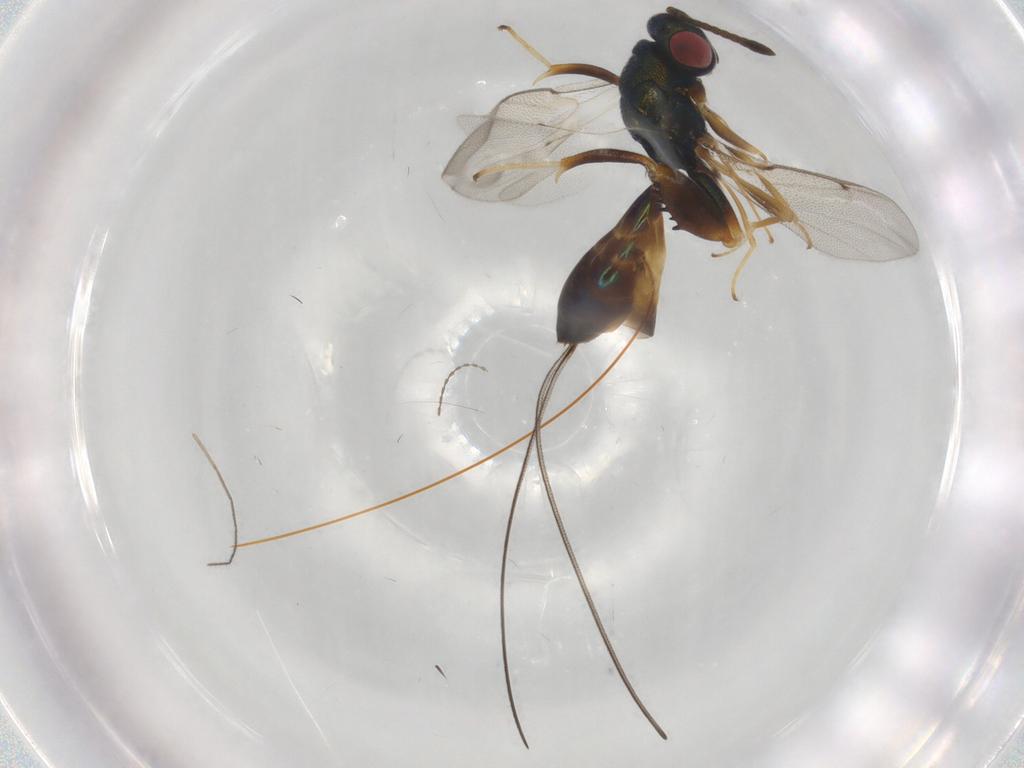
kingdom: Animalia
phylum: Arthropoda
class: Insecta
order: Hymenoptera
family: Torymidae
